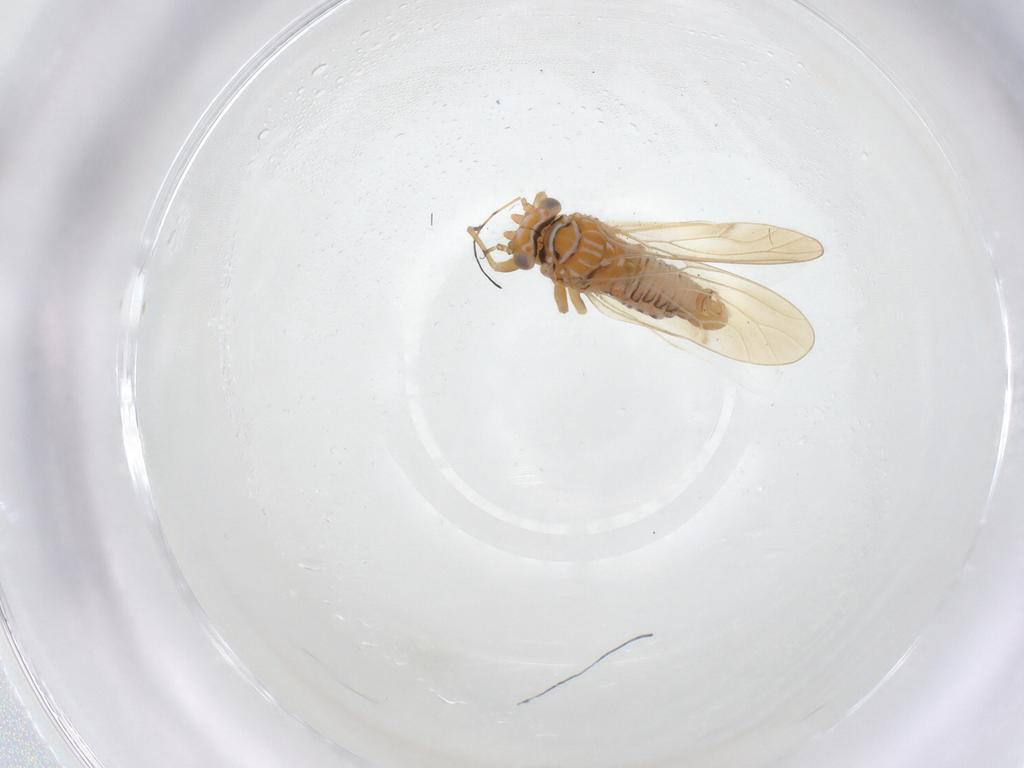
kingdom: Animalia
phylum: Arthropoda
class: Insecta
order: Hemiptera
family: Psyllidae
